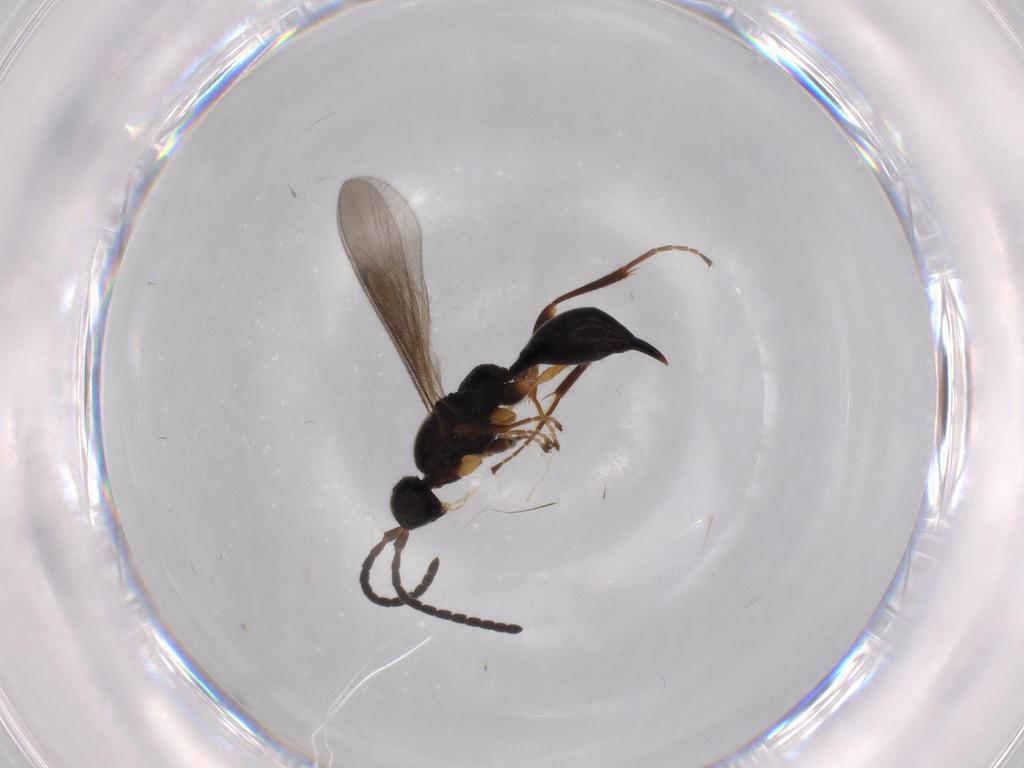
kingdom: Animalia
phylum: Arthropoda
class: Insecta
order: Hymenoptera
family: Proctotrupidae
